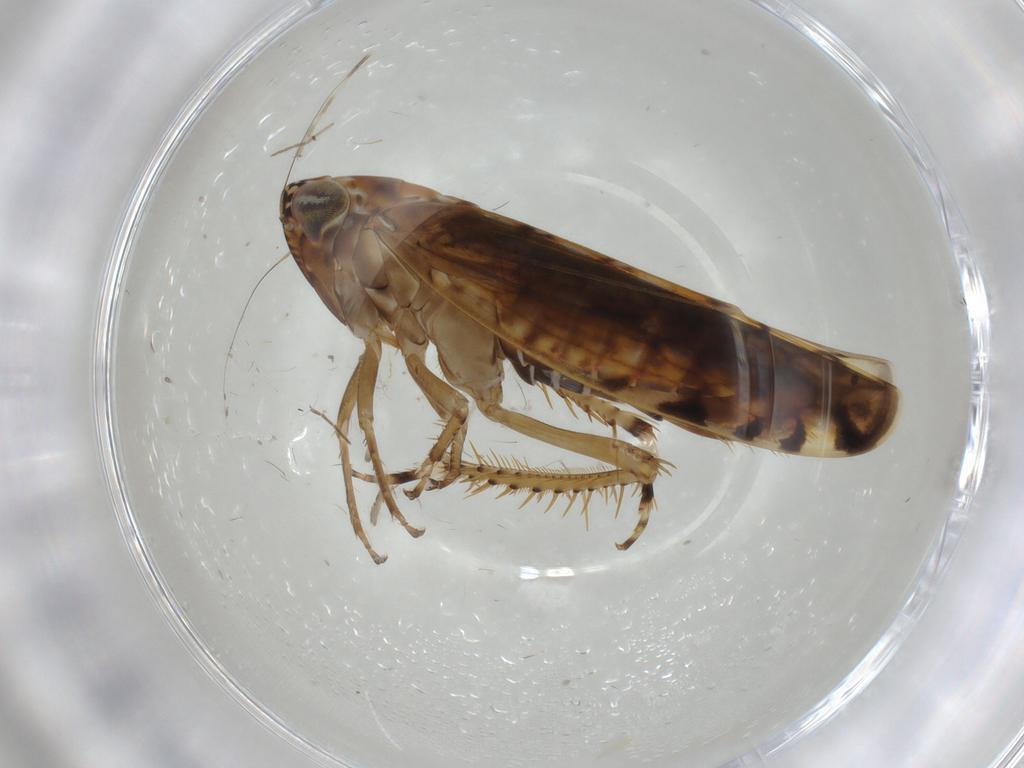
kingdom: Animalia
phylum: Arthropoda
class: Insecta
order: Hemiptera
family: Cicadellidae
